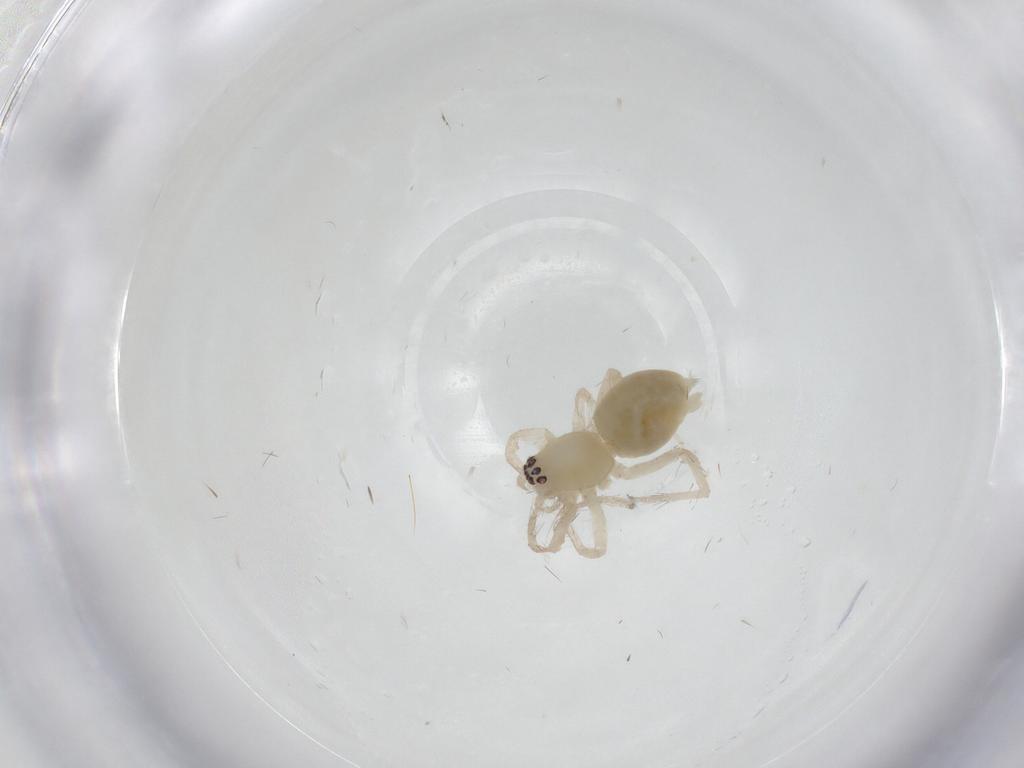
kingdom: Animalia
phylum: Arthropoda
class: Arachnida
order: Araneae
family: Anyphaenidae
